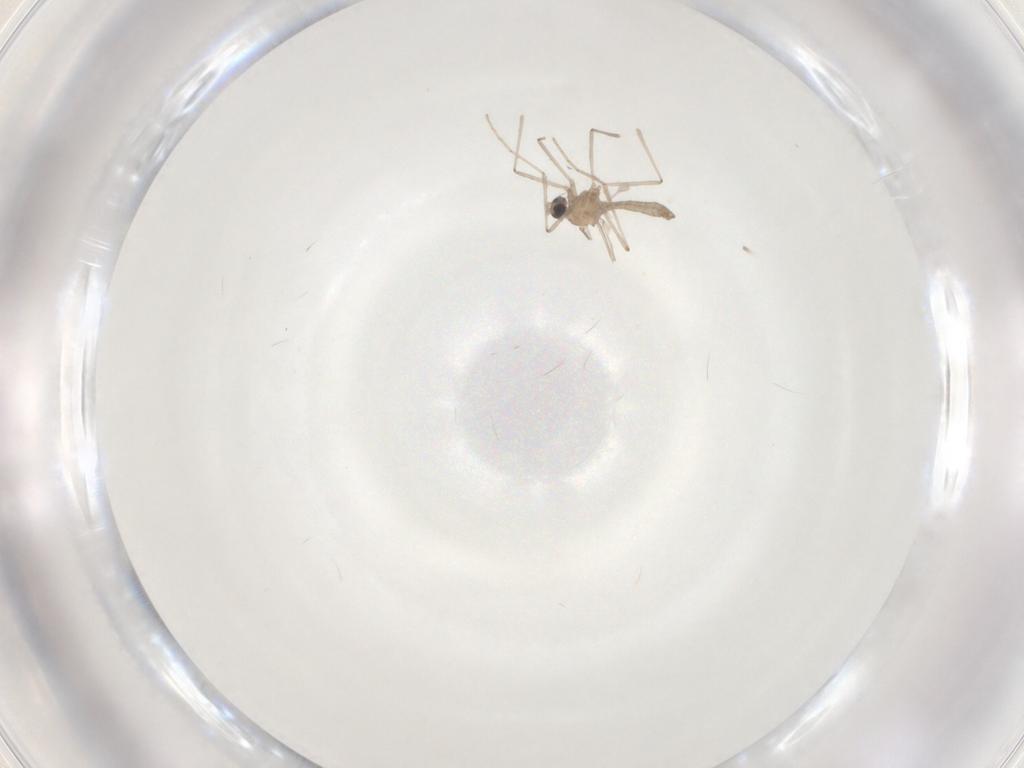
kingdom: Animalia
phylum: Arthropoda
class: Insecta
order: Diptera
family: Cecidomyiidae
